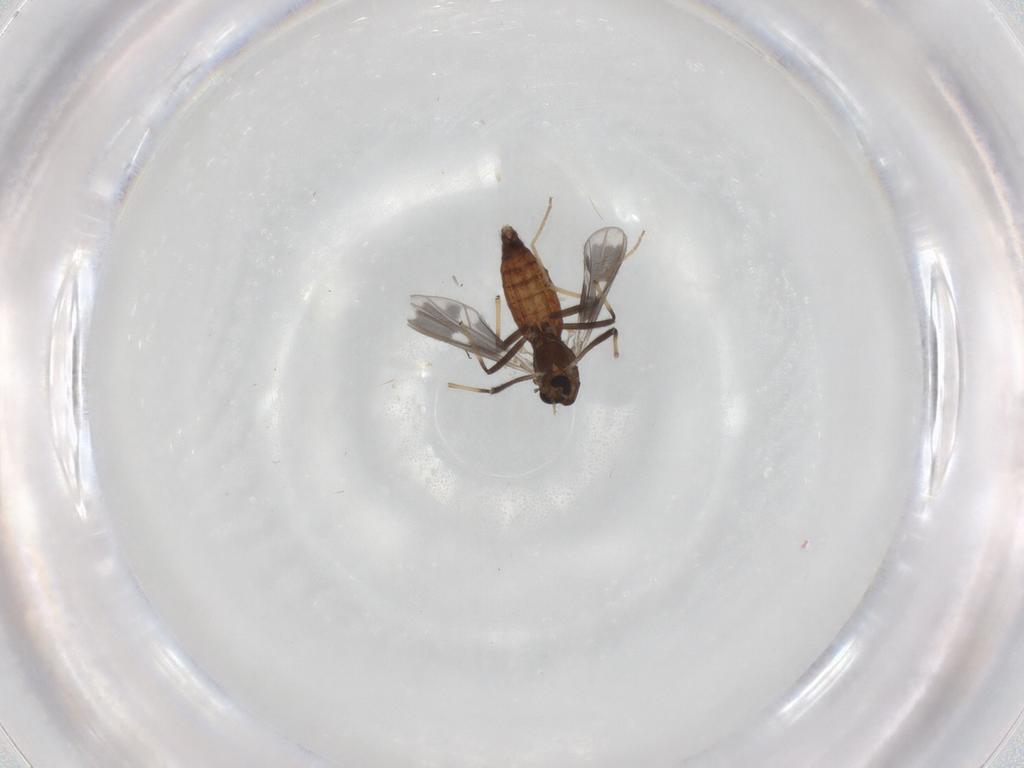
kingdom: Animalia
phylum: Arthropoda
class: Insecta
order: Diptera
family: Chironomidae
